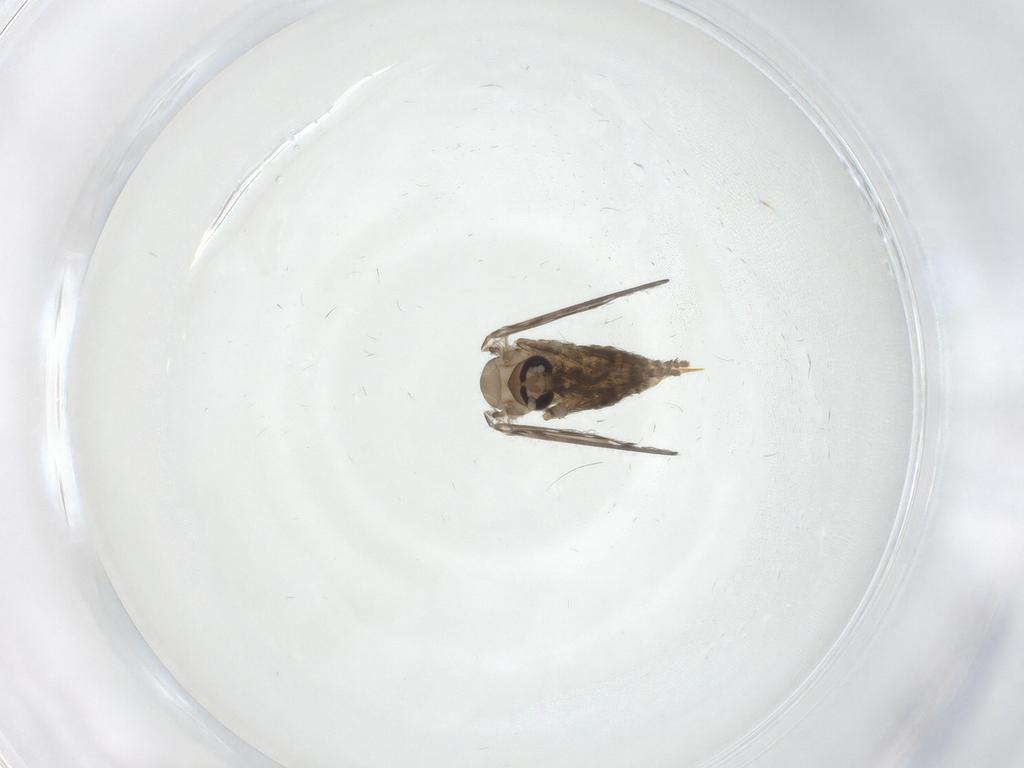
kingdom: Animalia
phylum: Arthropoda
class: Insecta
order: Diptera
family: Psychodidae
